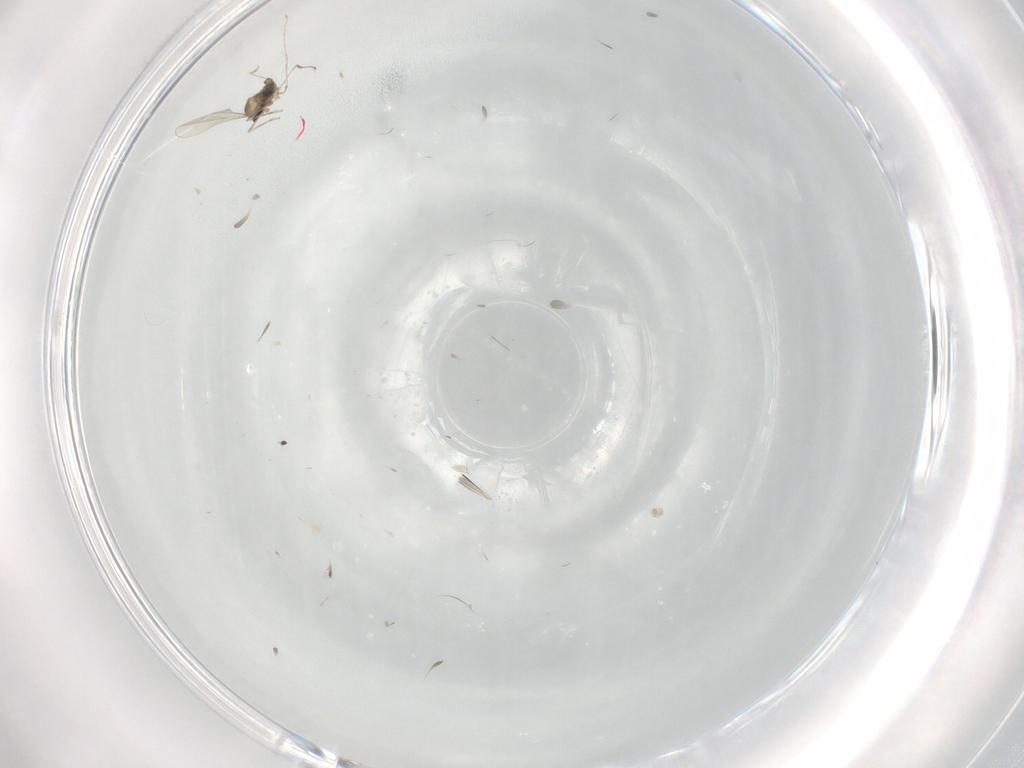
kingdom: Animalia
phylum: Arthropoda
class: Insecta
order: Diptera
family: Cecidomyiidae
